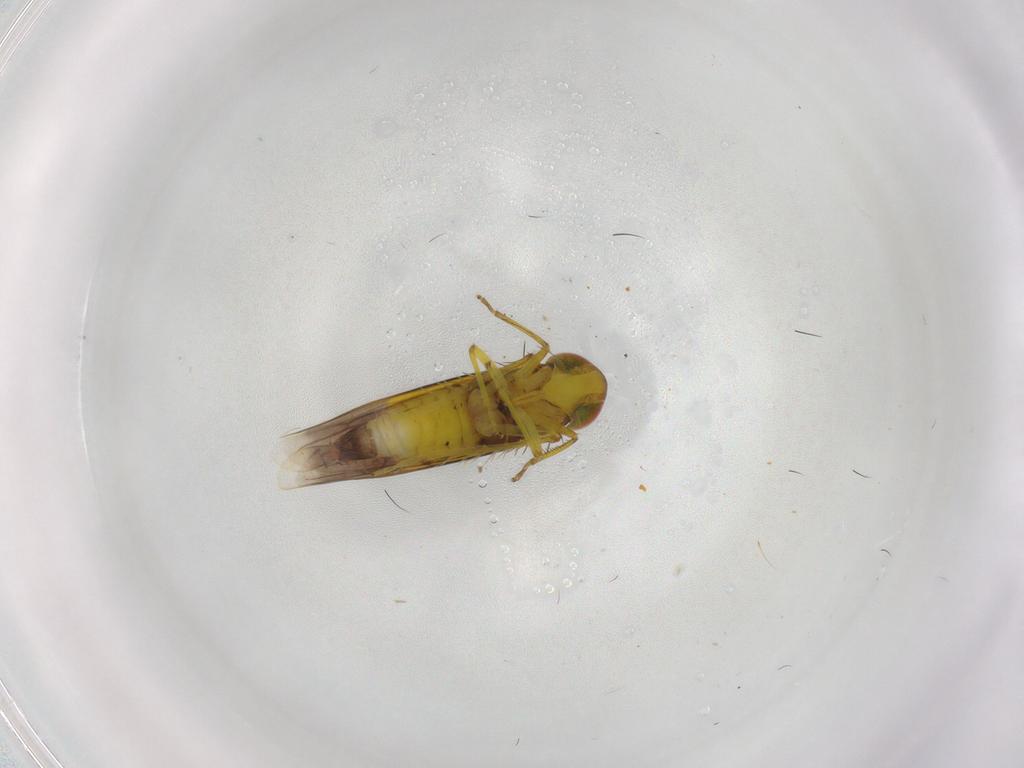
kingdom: Animalia
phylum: Arthropoda
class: Insecta
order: Hemiptera
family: Cicadellidae
